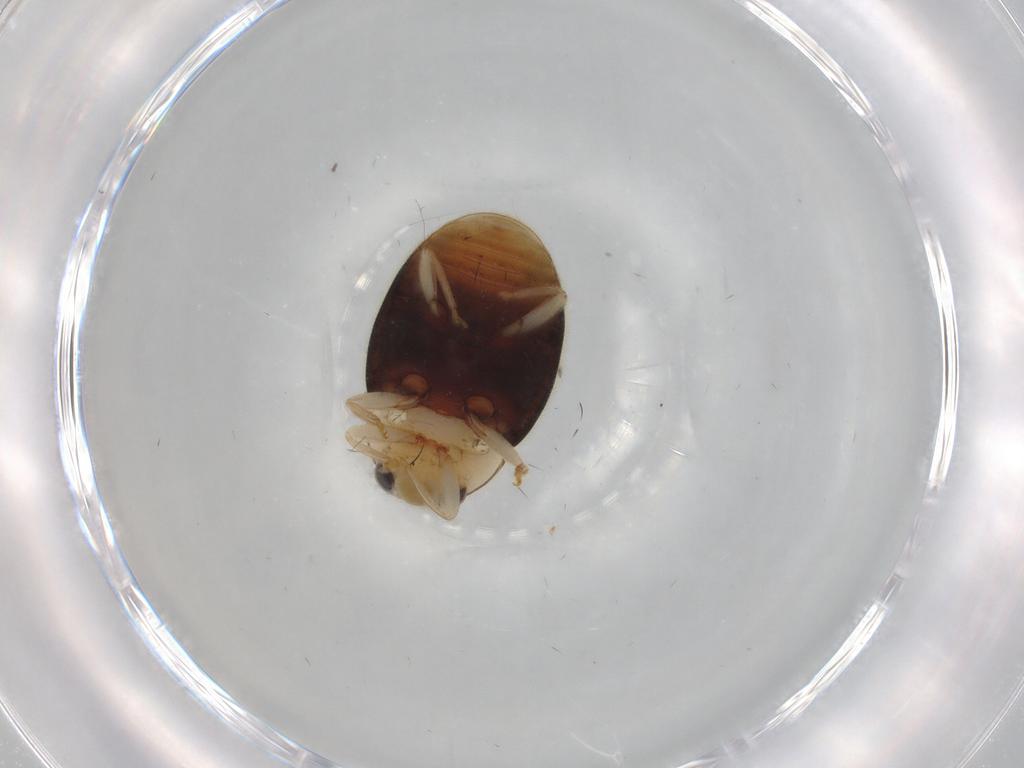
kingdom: Animalia
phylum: Arthropoda
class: Insecta
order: Coleoptera
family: Coccinellidae
